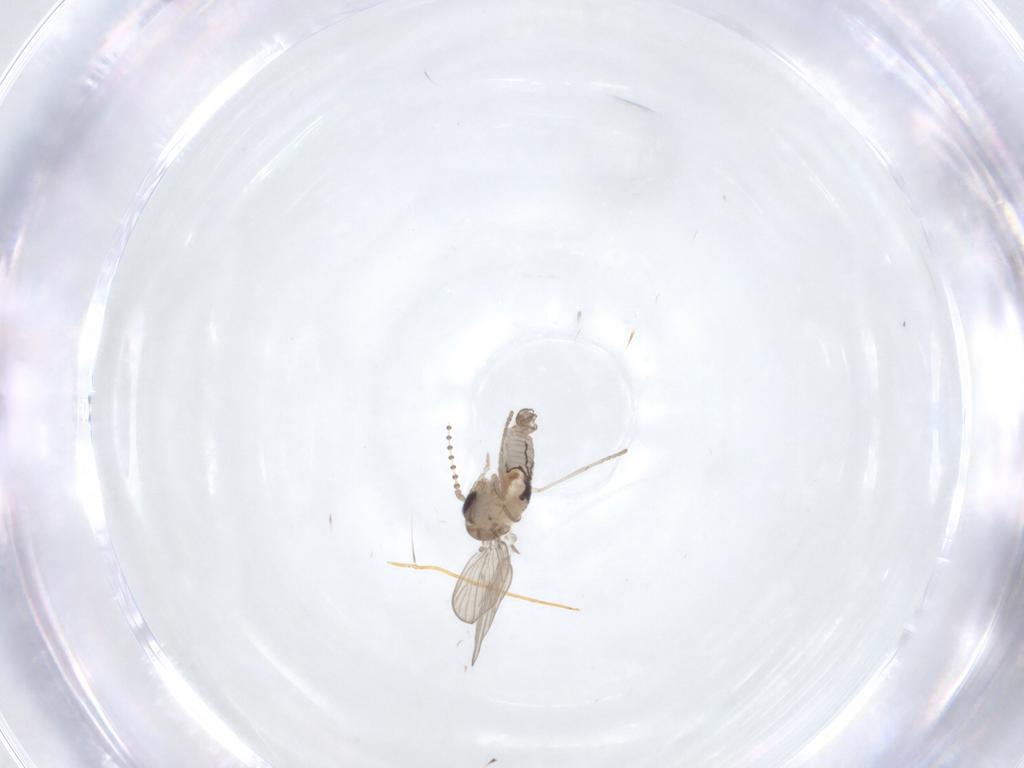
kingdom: Animalia
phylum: Arthropoda
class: Insecta
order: Diptera
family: Psychodidae
